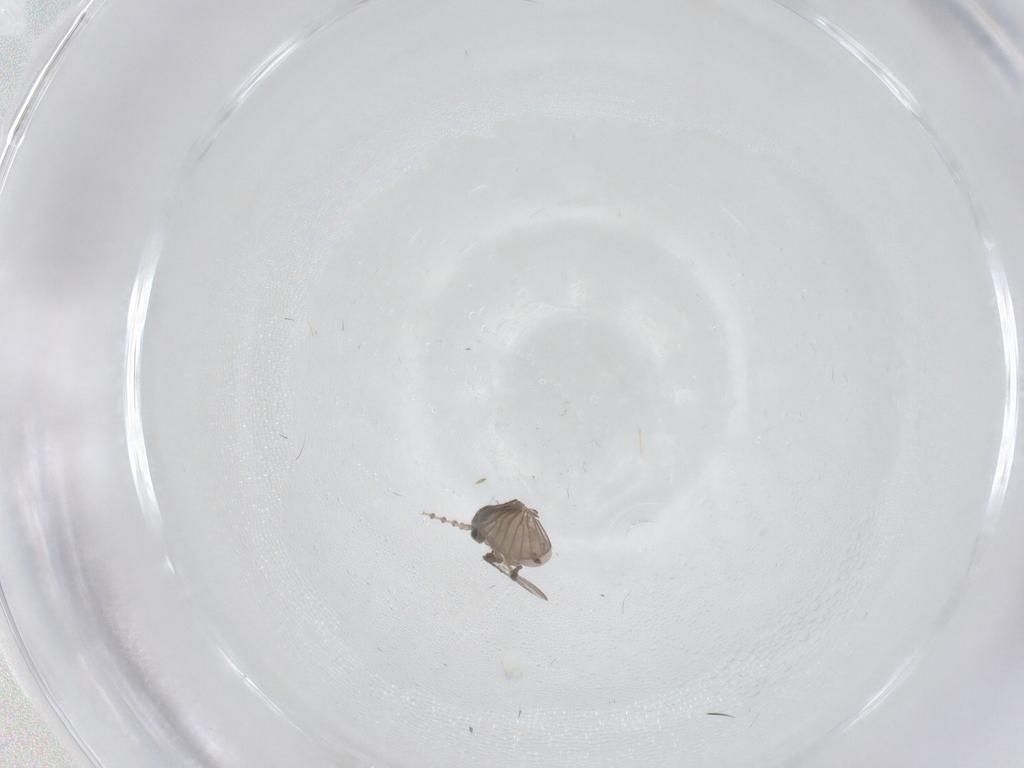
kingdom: Animalia
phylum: Arthropoda
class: Insecta
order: Diptera
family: Psychodidae
